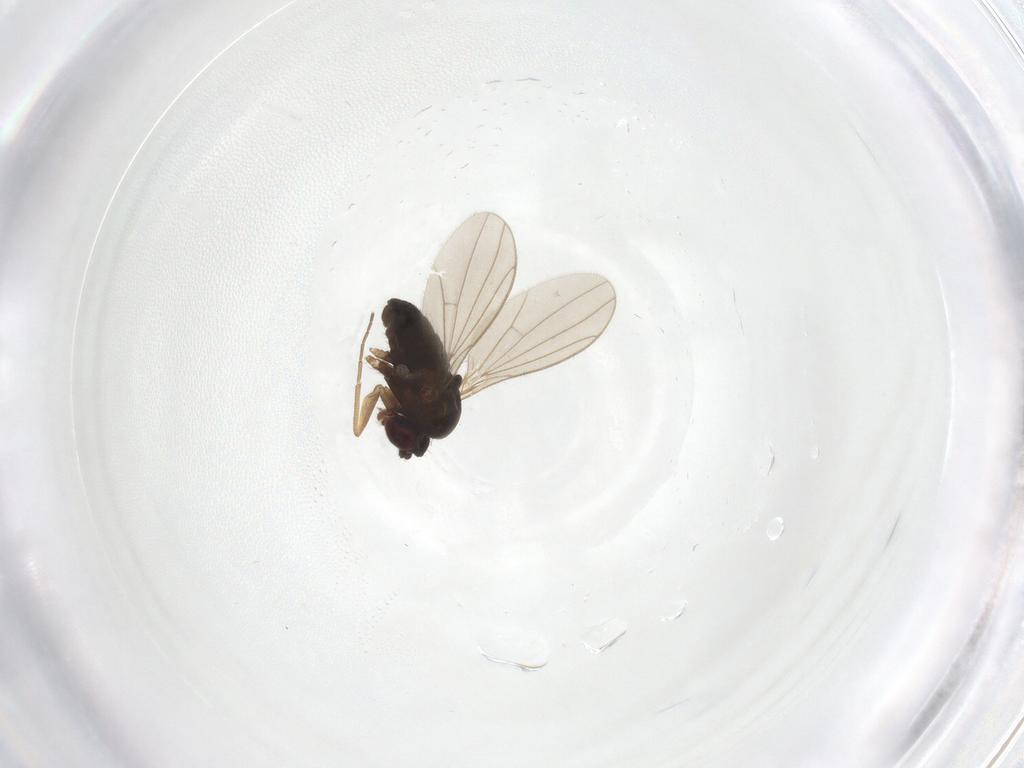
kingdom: Animalia
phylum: Arthropoda
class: Insecta
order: Diptera
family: Dolichopodidae
